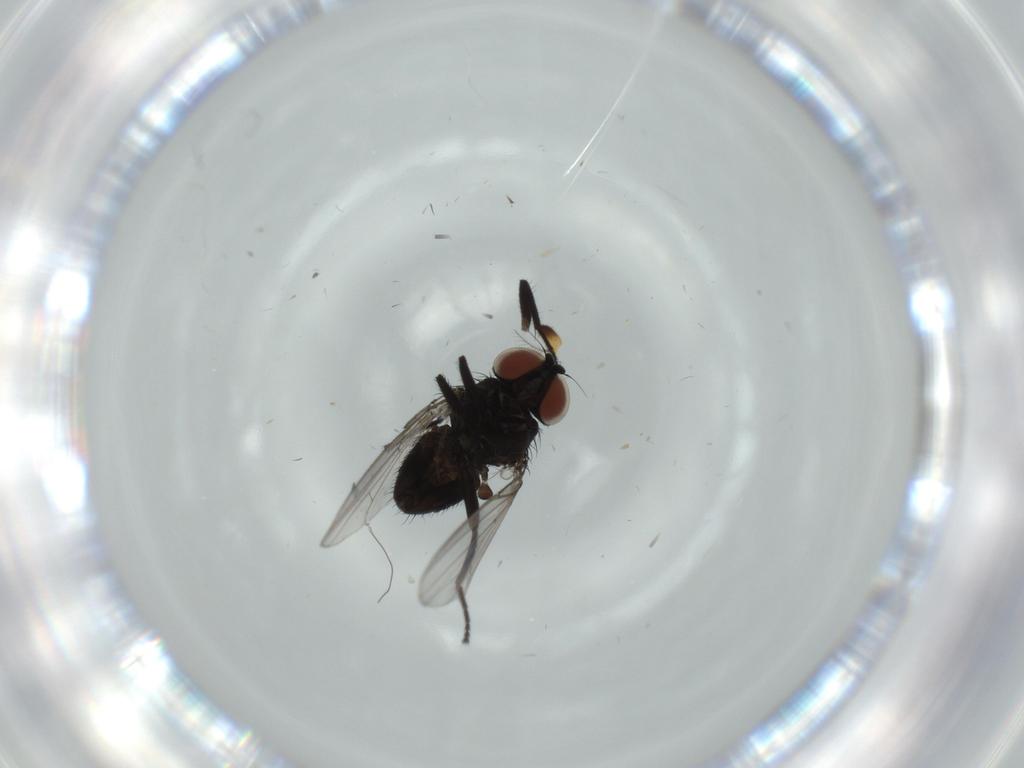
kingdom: Animalia
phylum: Arthropoda
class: Insecta
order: Diptera
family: Milichiidae
